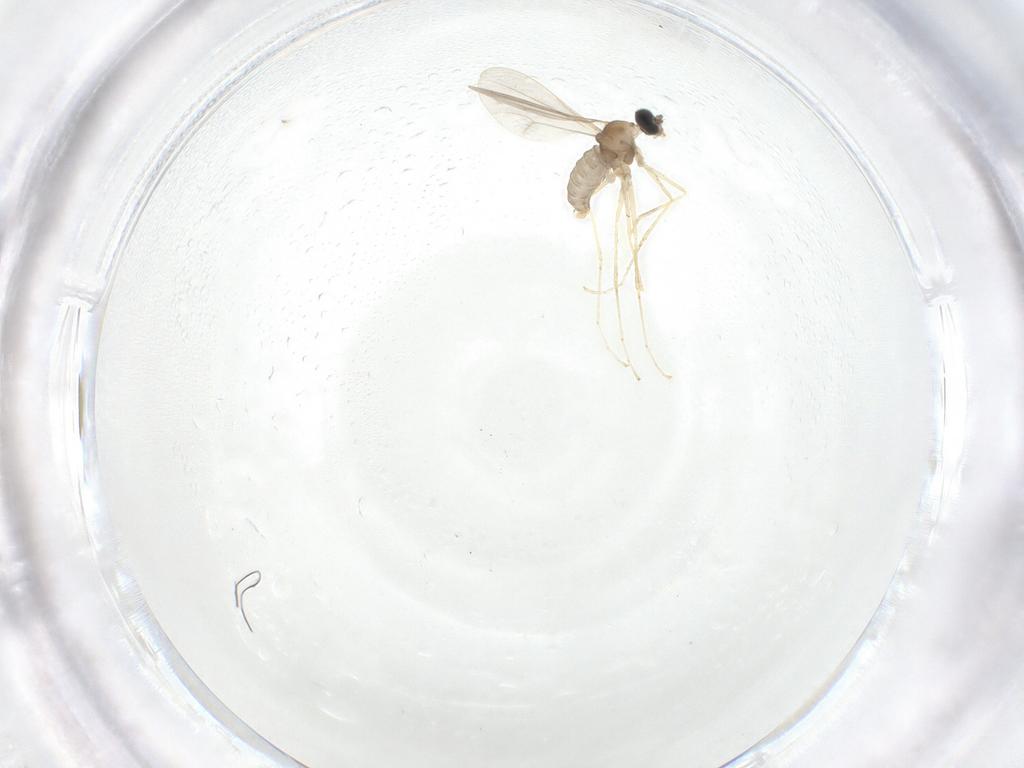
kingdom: Animalia
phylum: Arthropoda
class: Insecta
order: Diptera
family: Cecidomyiidae
